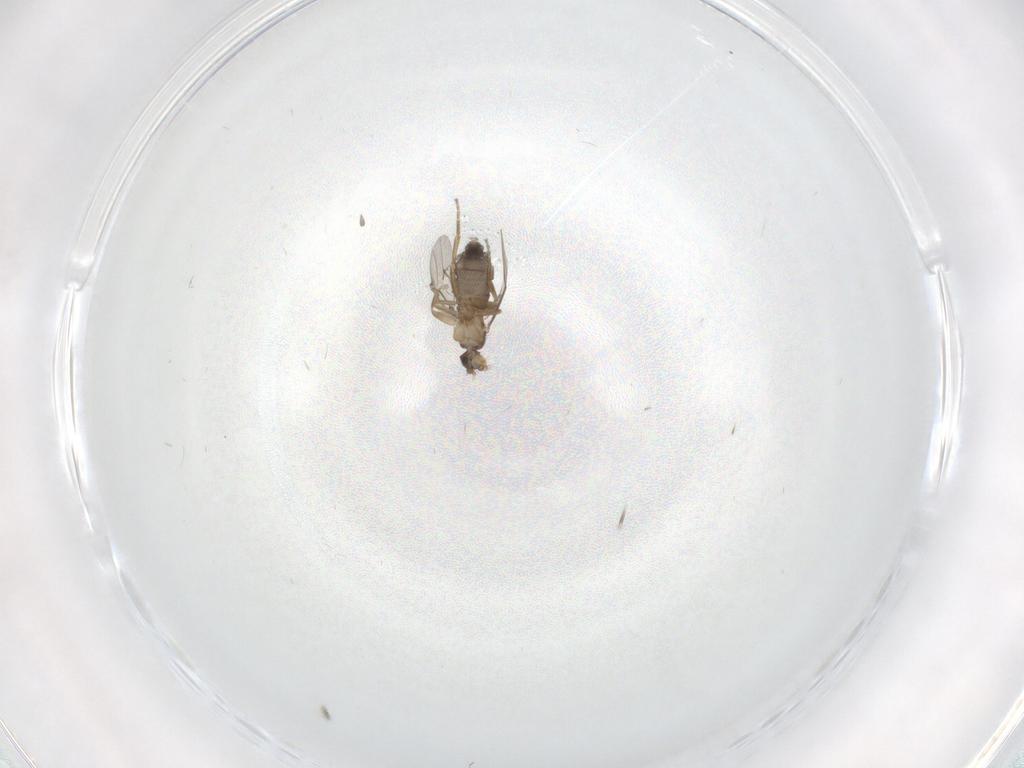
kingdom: Animalia
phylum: Arthropoda
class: Insecta
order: Diptera
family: Phoridae
